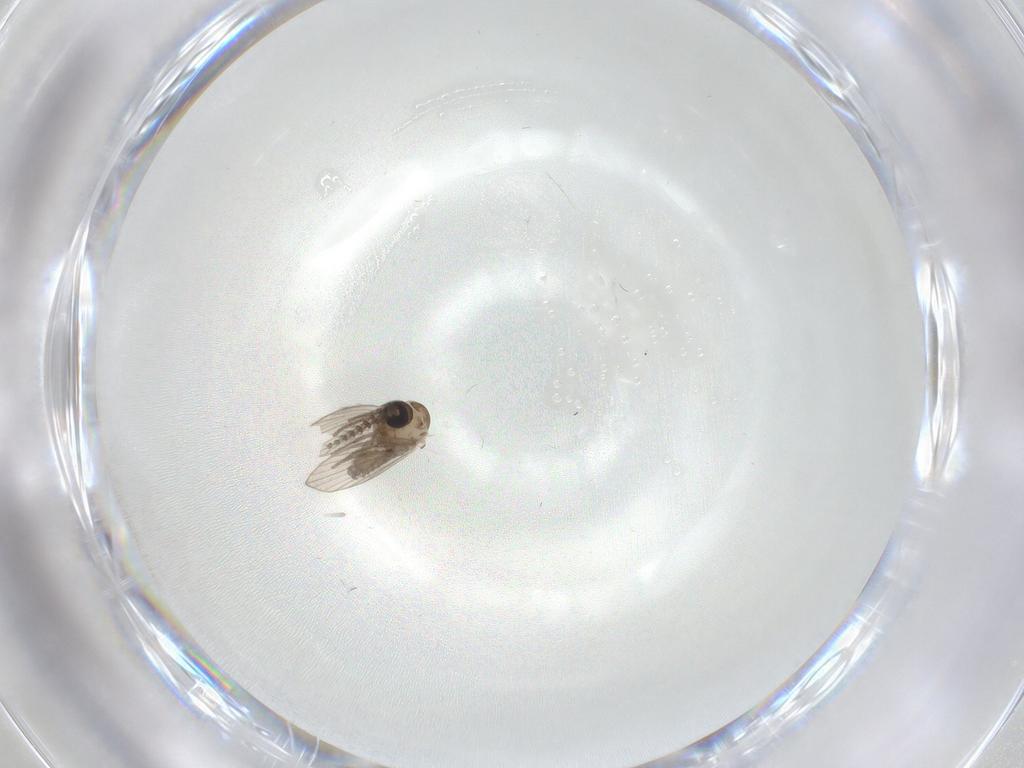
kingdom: Animalia
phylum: Arthropoda
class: Insecta
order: Diptera
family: Psychodidae
